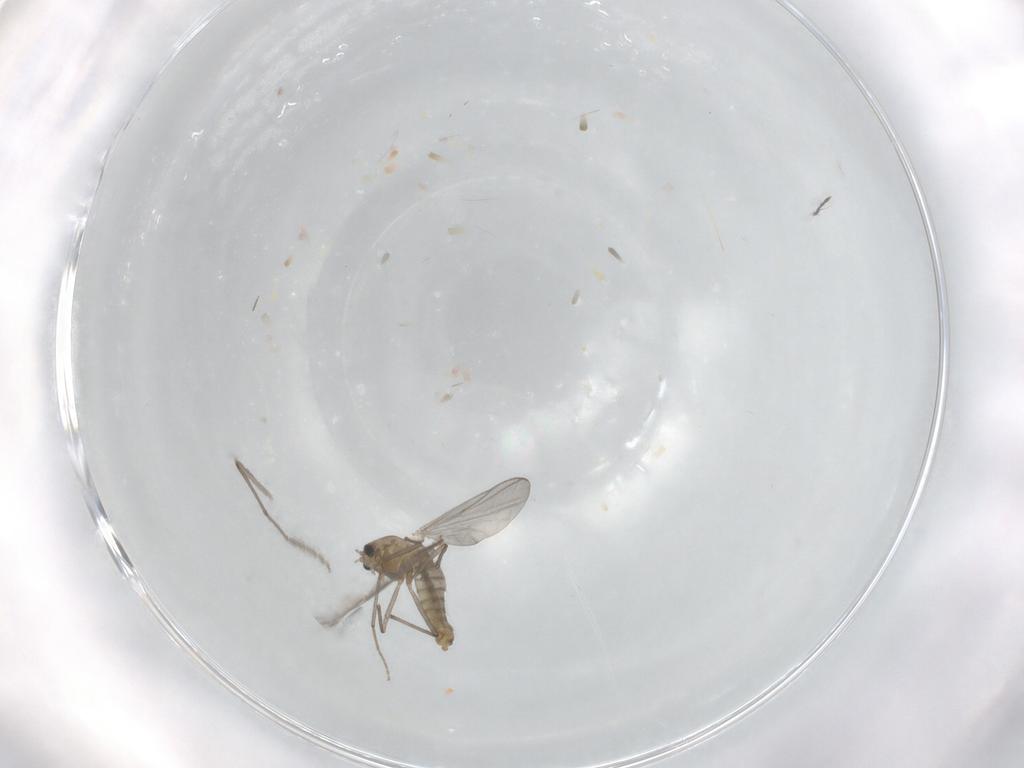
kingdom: Animalia
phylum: Arthropoda
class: Insecta
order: Diptera
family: Chironomidae
